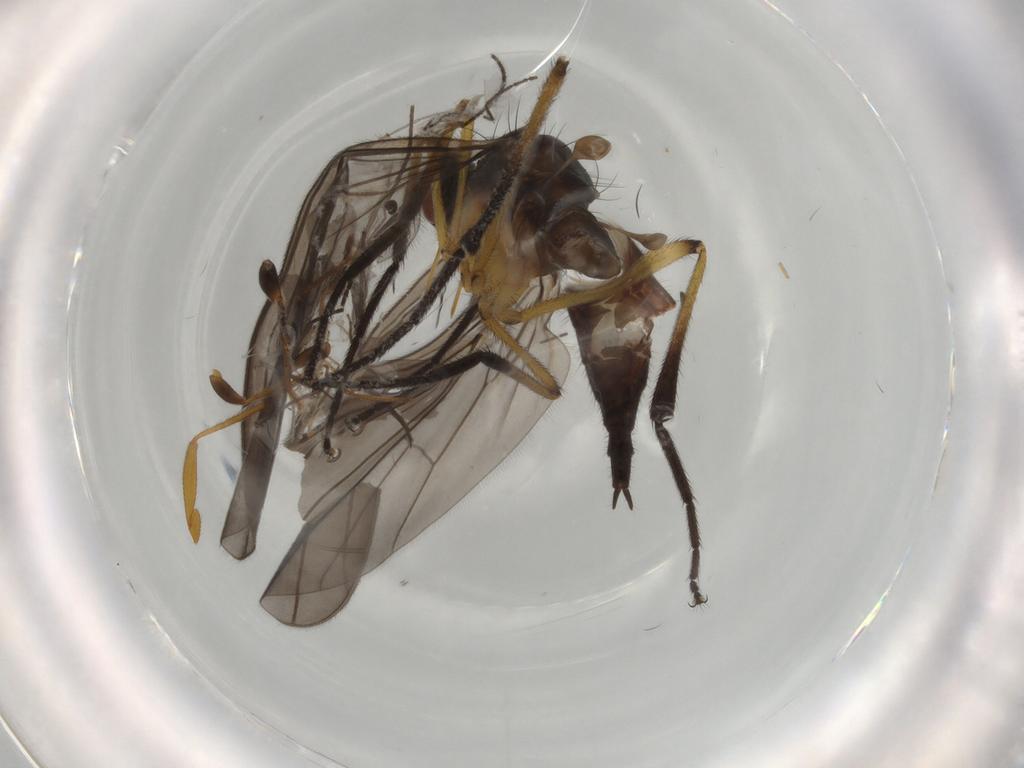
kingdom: Animalia
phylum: Arthropoda
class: Insecta
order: Diptera
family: Empididae
